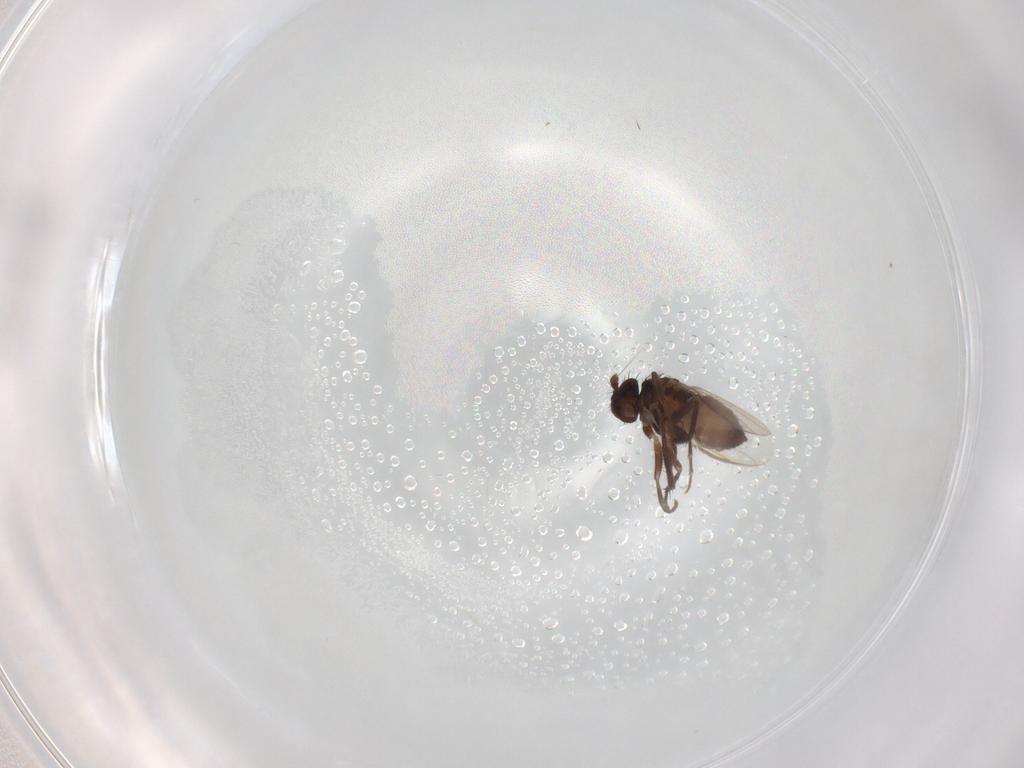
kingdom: Animalia
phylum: Arthropoda
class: Insecta
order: Diptera
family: Sphaeroceridae
